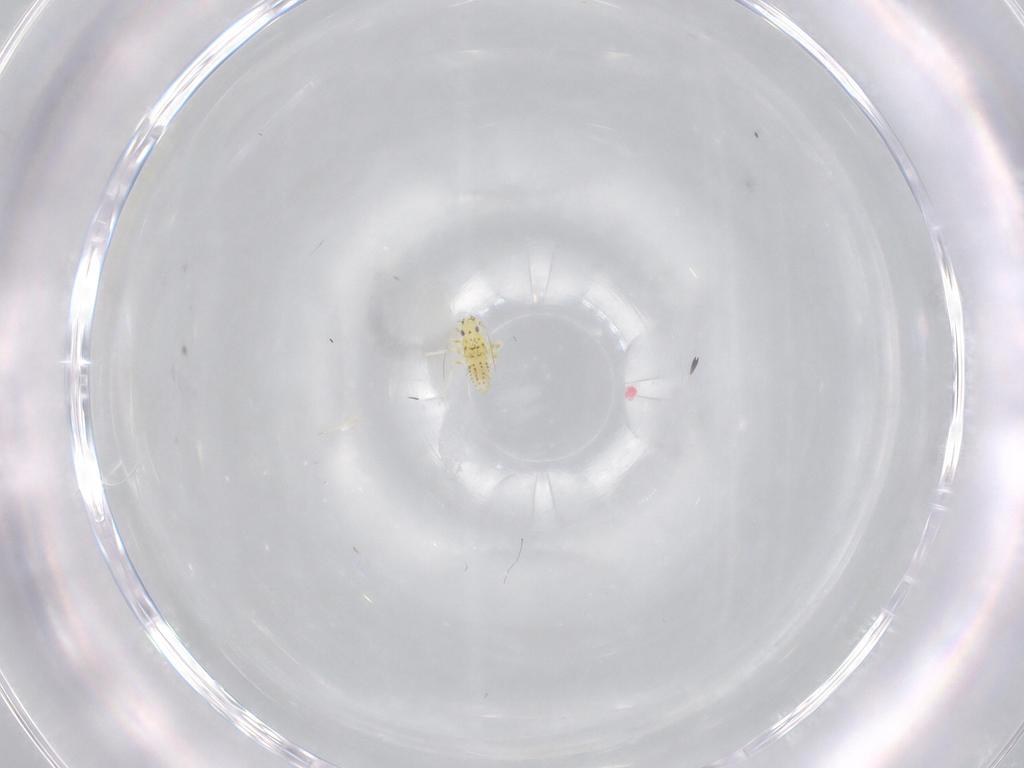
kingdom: Animalia
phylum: Arthropoda
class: Insecta
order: Hemiptera
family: Cicadellidae
